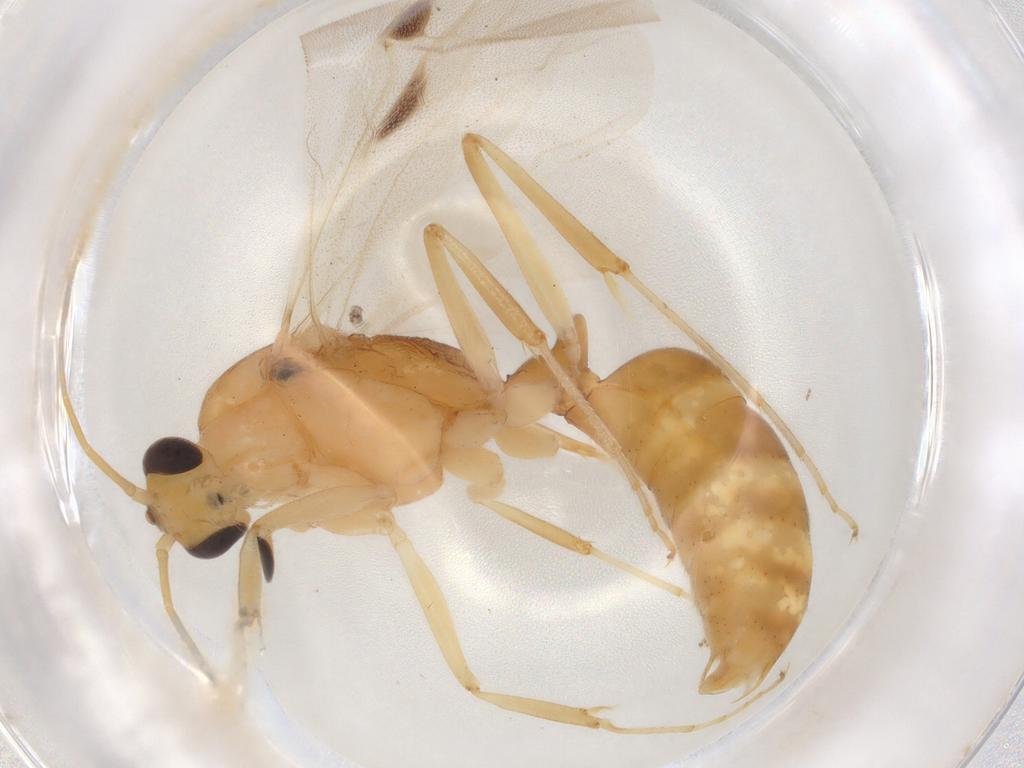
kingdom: Animalia
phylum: Arthropoda
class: Insecta
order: Hymenoptera
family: Formicidae
